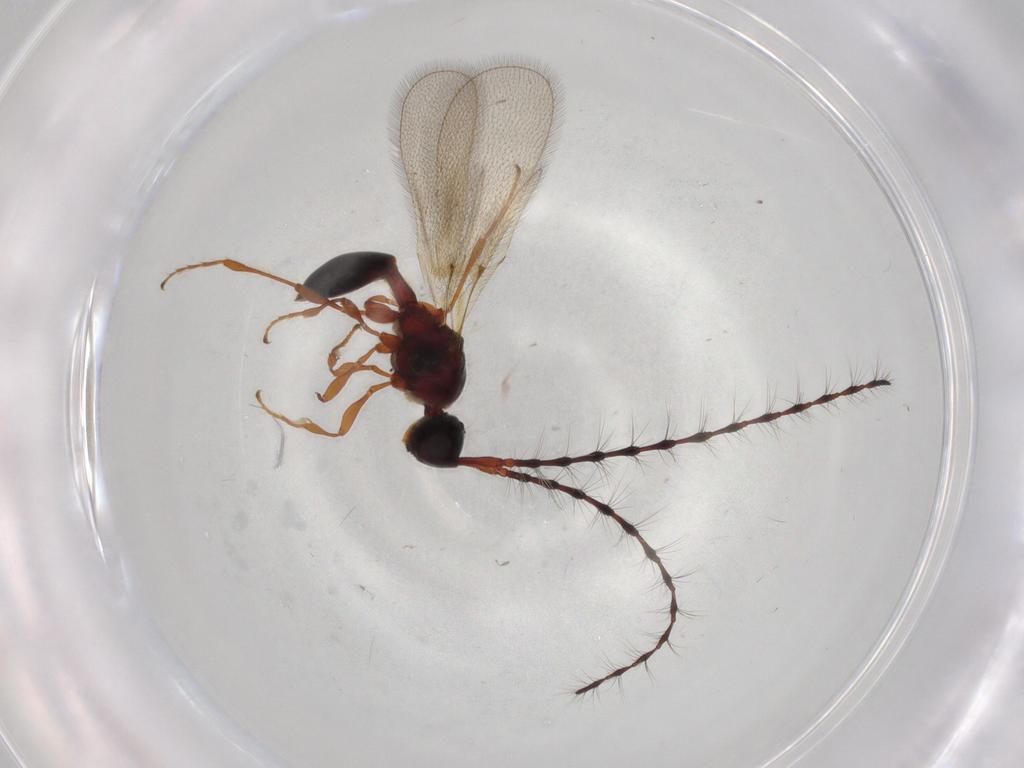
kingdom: Animalia
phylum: Arthropoda
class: Insecta
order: Hymenoptera
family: Diapriidae
